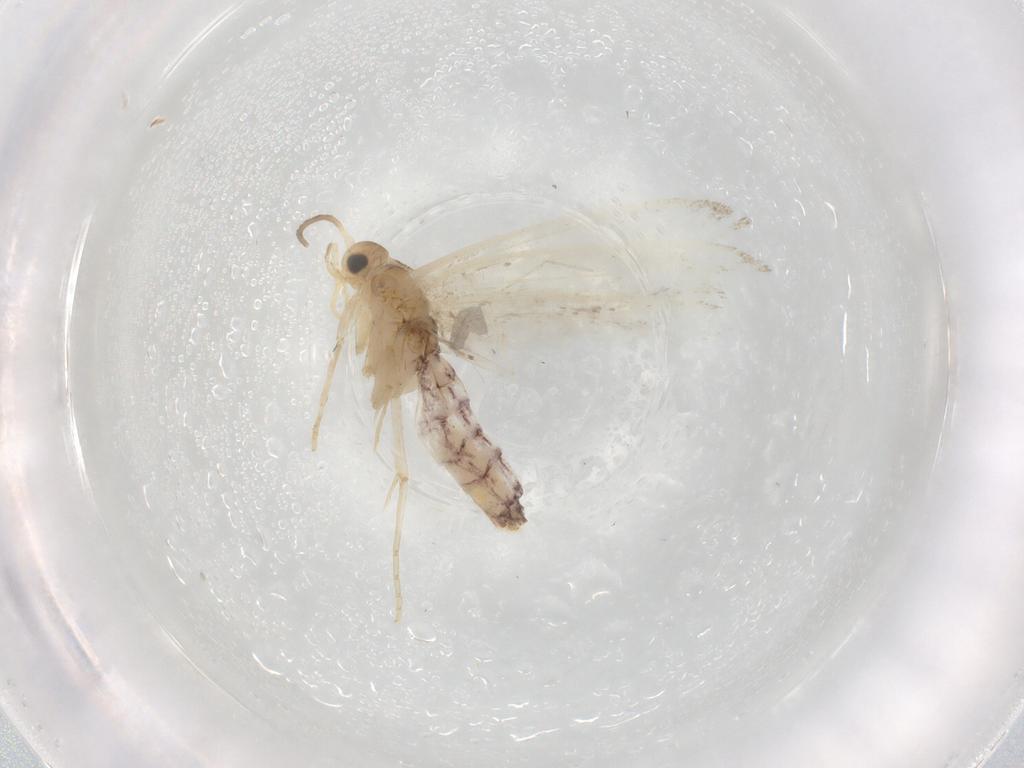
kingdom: Animalia
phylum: Arthropoda
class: Insecta
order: Lepidoptera
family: Dryadaulidae
